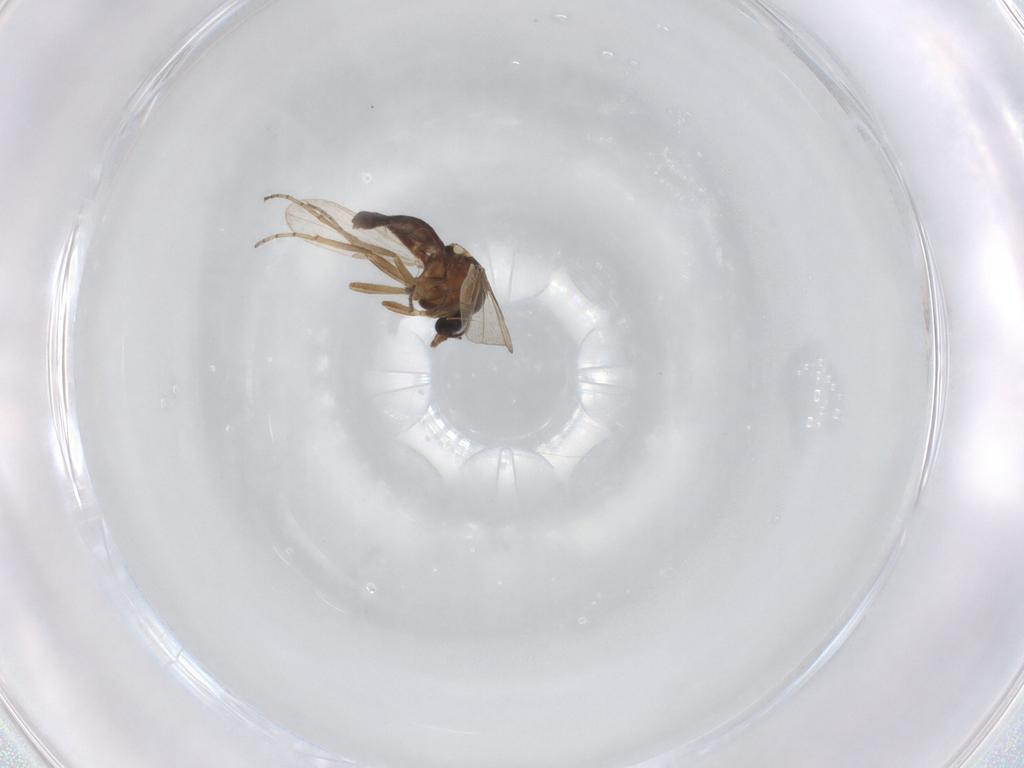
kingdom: Animalia
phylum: Arthropoda
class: Insecta
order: Diptera
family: Ceratopogonidae
